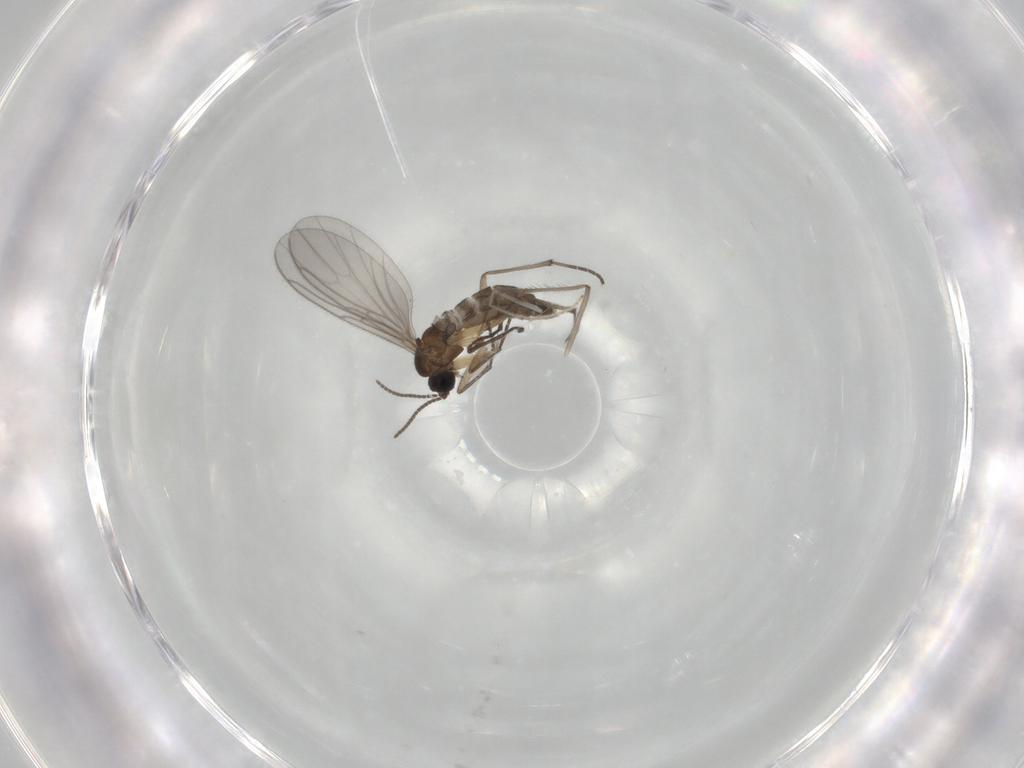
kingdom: Animalia
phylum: Arthropoda
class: Insecta
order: Diptera
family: Sciaridae
